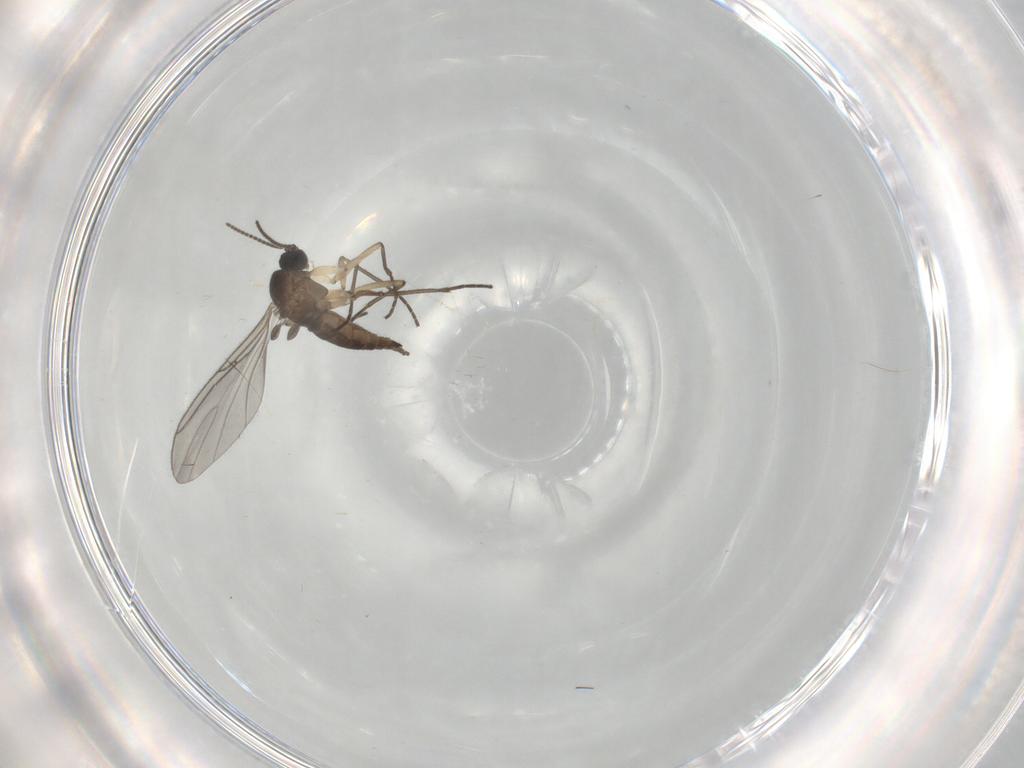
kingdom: Animalia
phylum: Arthropoda
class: Insecta
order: Diptera
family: Sciaridae
